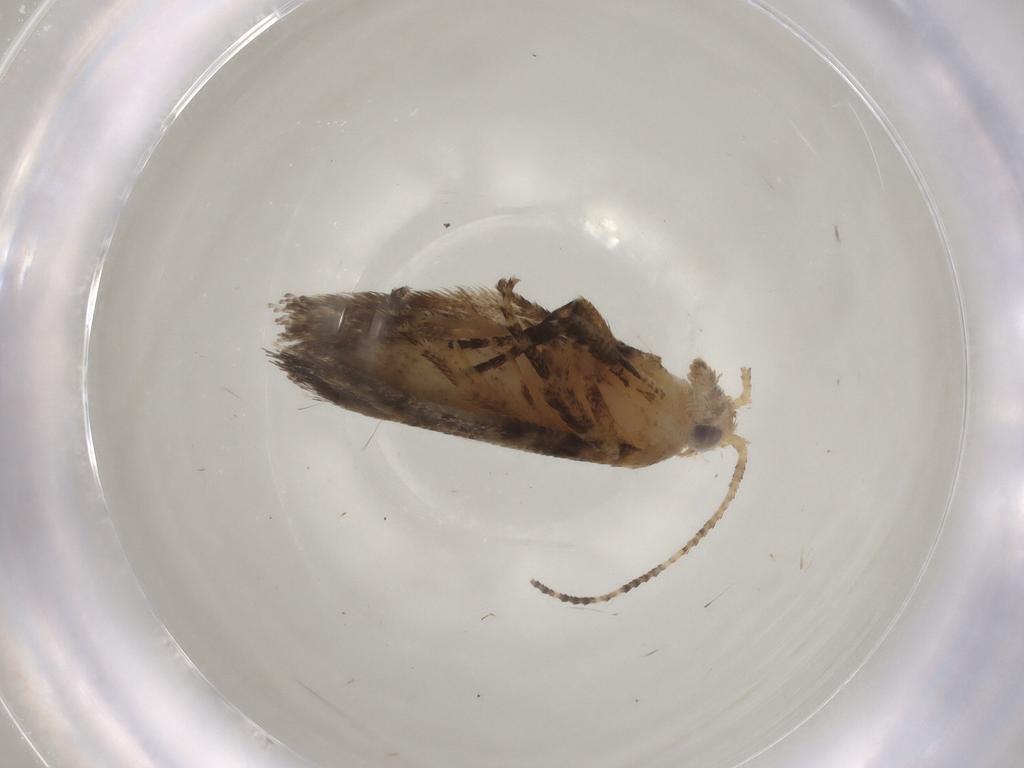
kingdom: Animalia
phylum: Arthropoda
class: Insecta
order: Lepidoptera
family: Ypsolophidae
